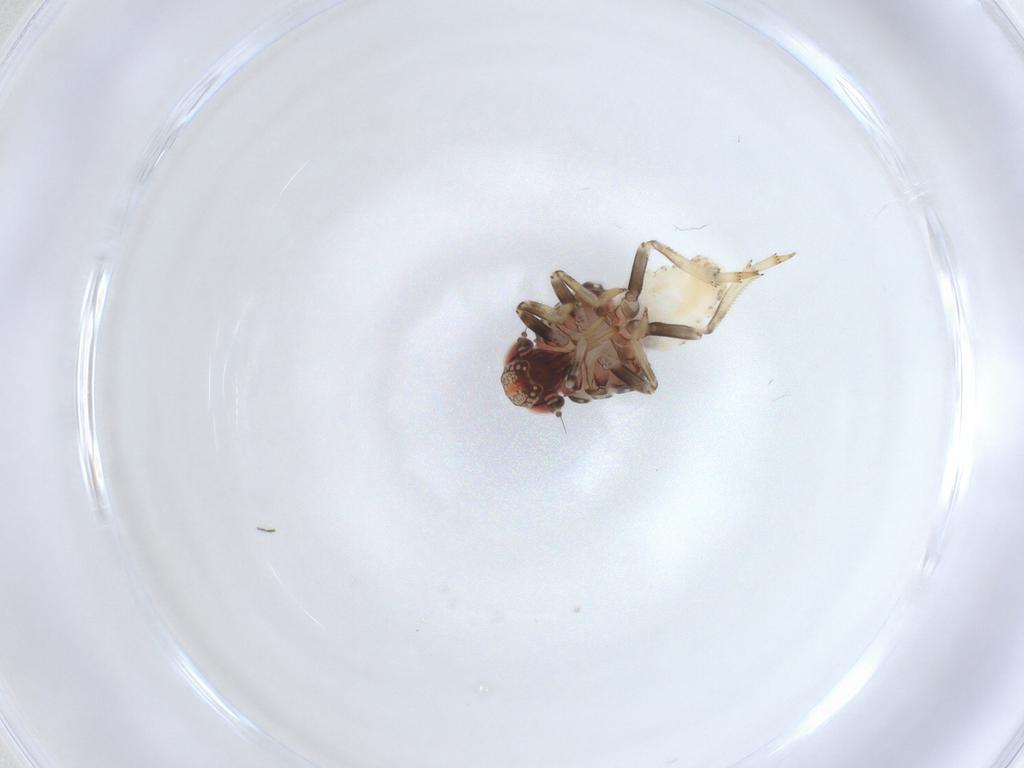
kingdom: Animalia
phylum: Arthropoda
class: Insecta
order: Hemiptera
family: Issidae
